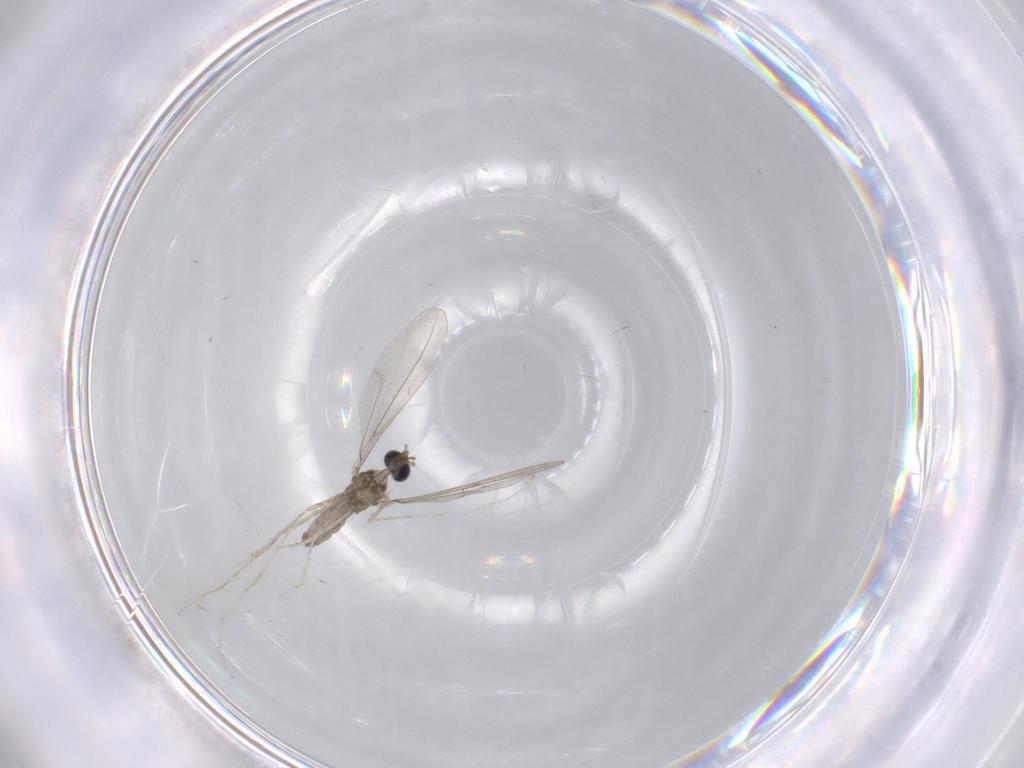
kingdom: Animalia
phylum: Arthropoda
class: Insecta
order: Diptera
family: Cecidomyiidae
